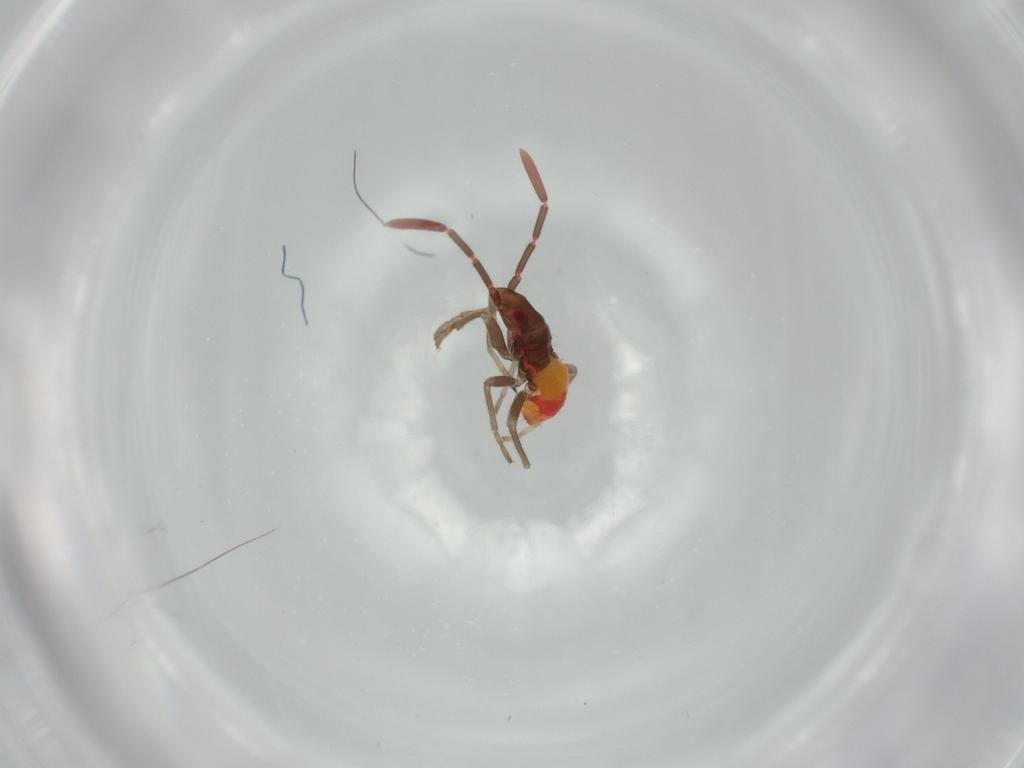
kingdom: Animalia
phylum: Arthropoda
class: Insecta
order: Hemiptera
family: Rhyparochromidae
